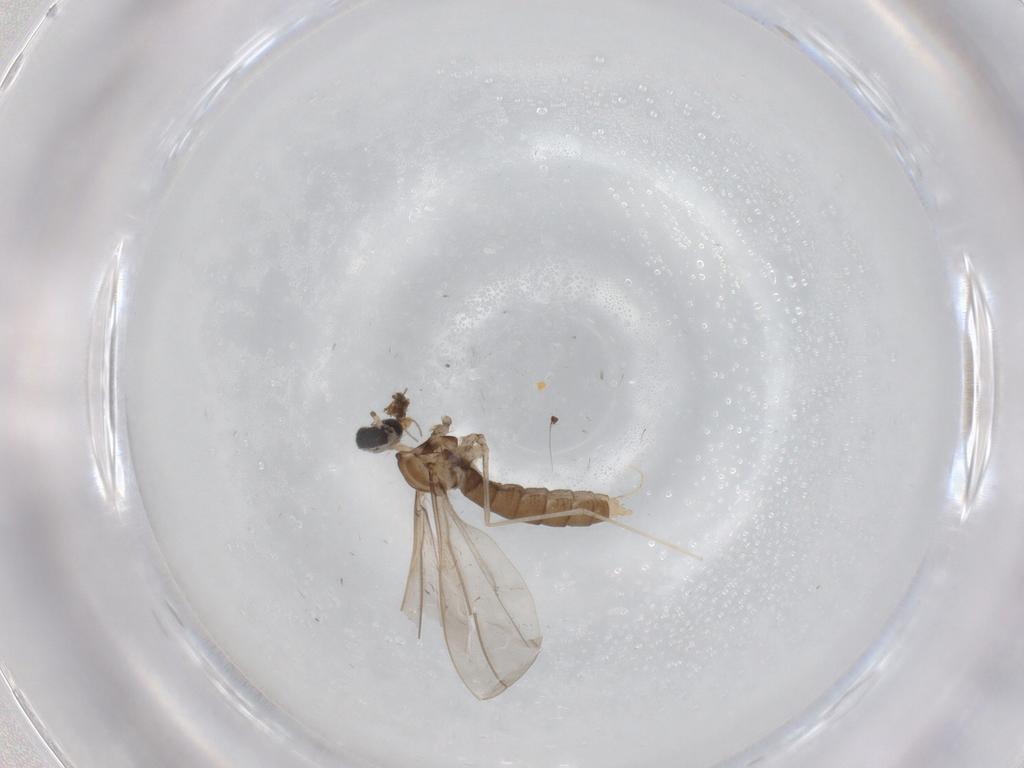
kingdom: Animalia
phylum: Arthropoda
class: Insecta
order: Diptera
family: Cecidomyiidae
